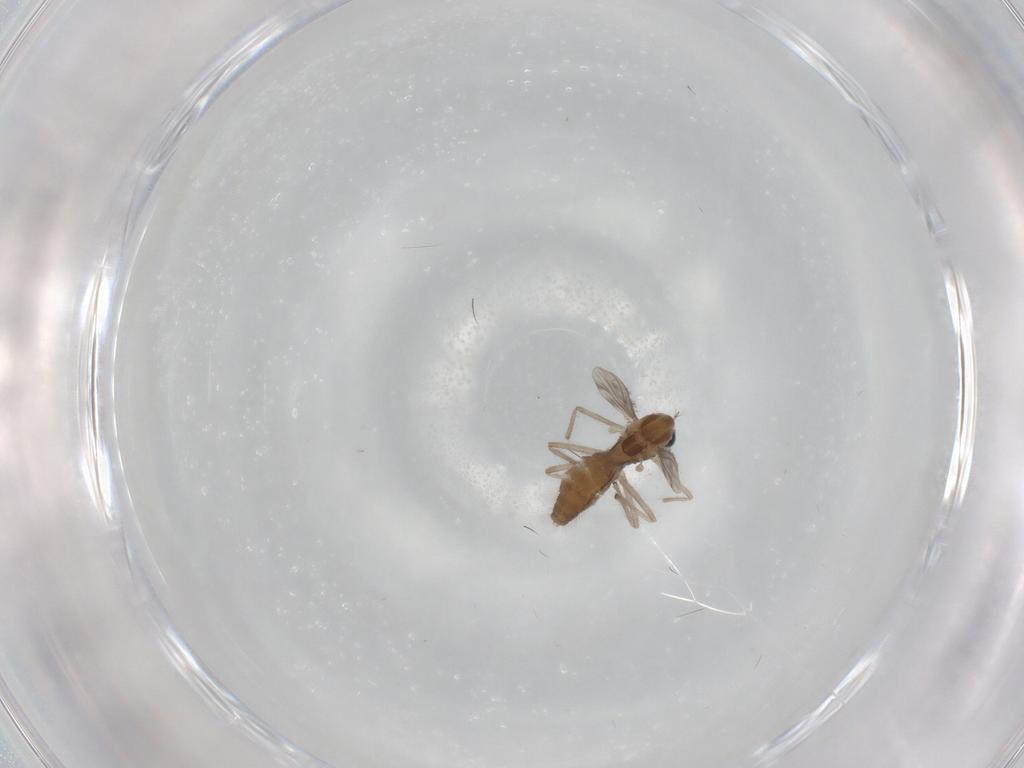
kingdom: Animalia
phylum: Arthropoda
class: Insecta
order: Diptera
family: Chironomidae
